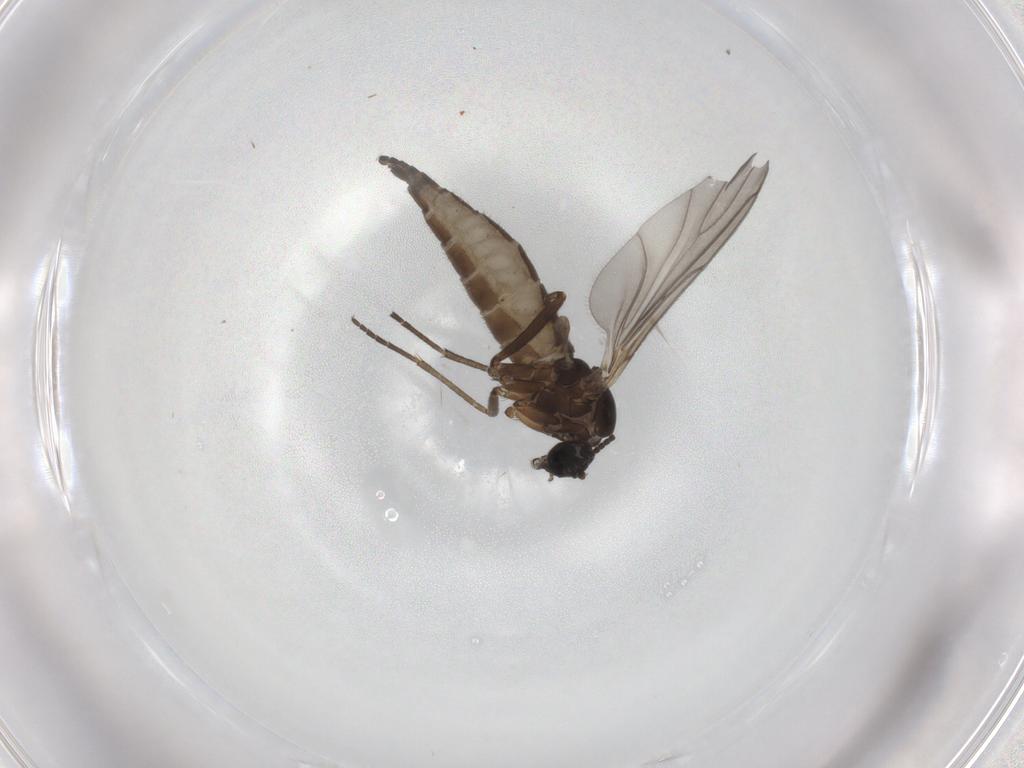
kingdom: Animalia
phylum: Arthropoda
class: Insecta
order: Diptera
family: Sciaridae
